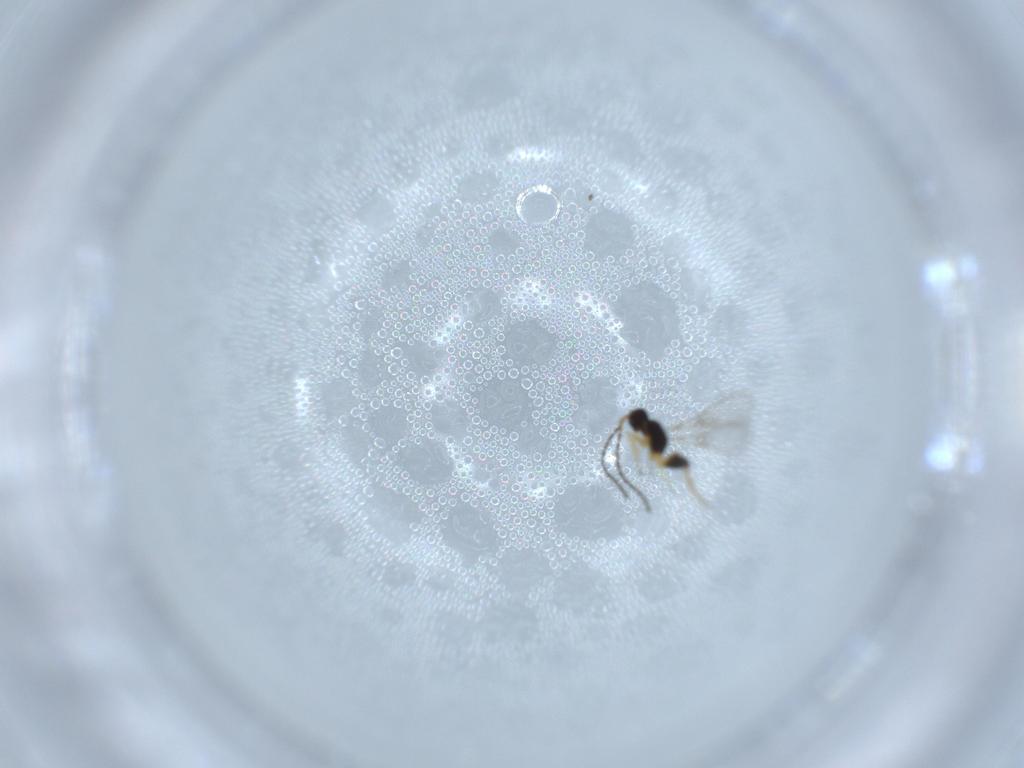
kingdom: Animalia
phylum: Arthropoda
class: Insecta
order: Hymenoptera
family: Mymaridae
